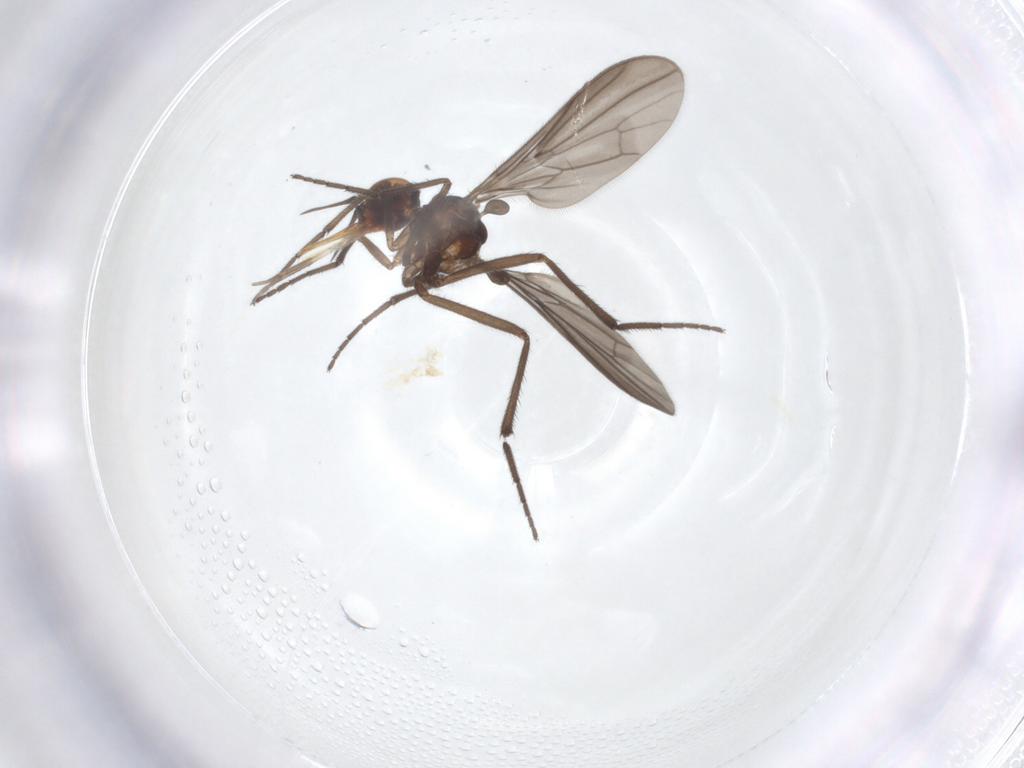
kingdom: Animalia
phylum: Arthropoda
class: Insecta
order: Diptera
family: Empididae
